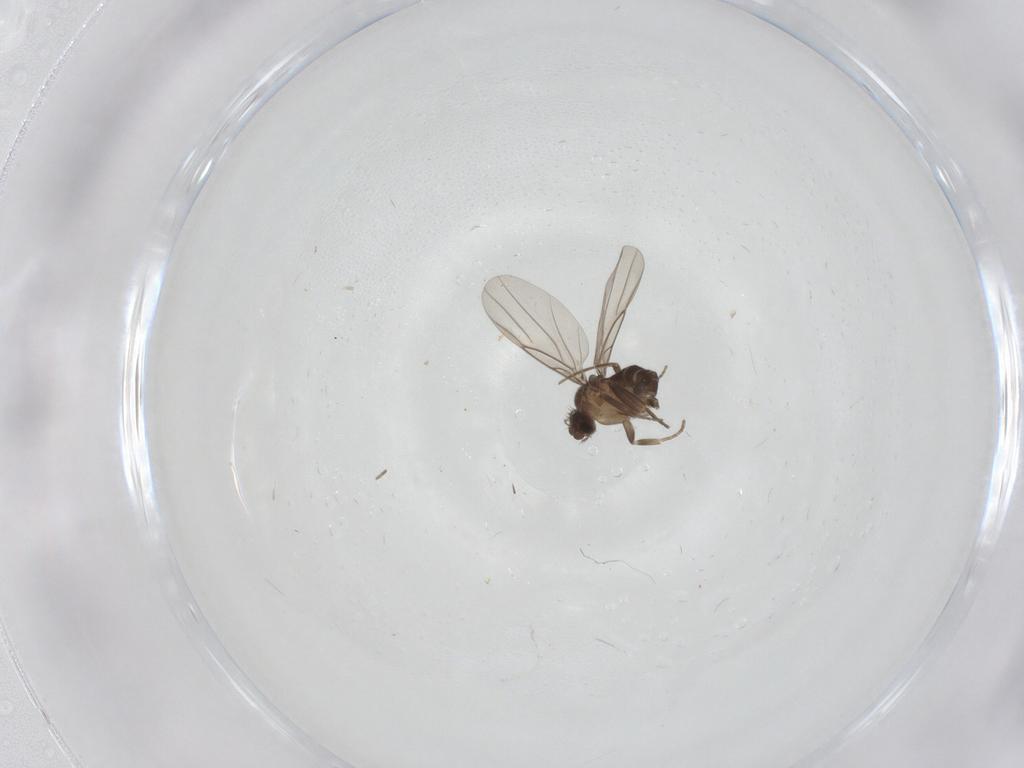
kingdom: Animalia
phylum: Arthropoda
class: Insecta
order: Diptera
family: Phoridae
